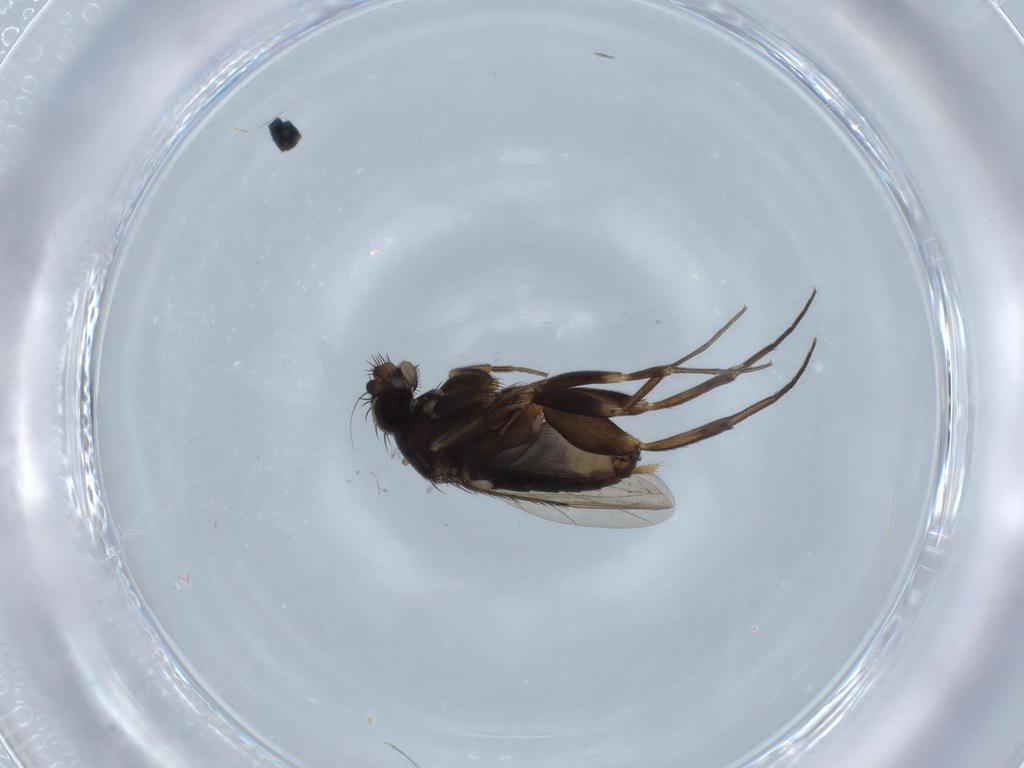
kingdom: Animalia
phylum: Arthropoda
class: Insecta
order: Diptera
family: Phoridae
